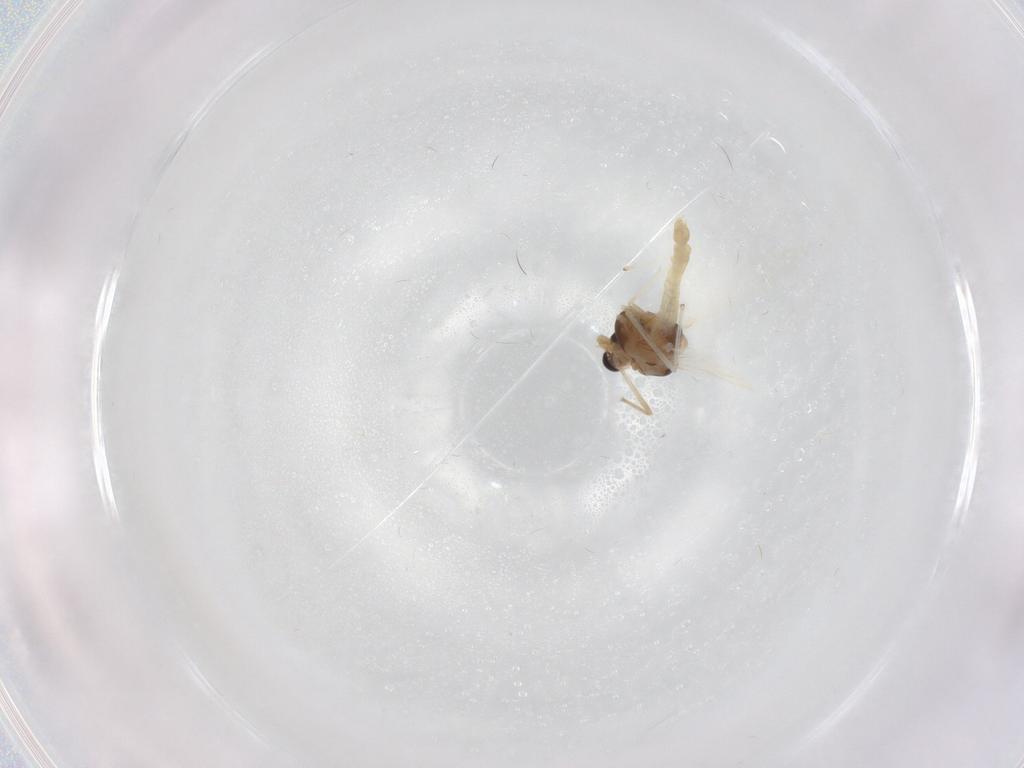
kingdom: Animalia
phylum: Arthropoda
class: Insecta
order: Diptera
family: Chironomidae
